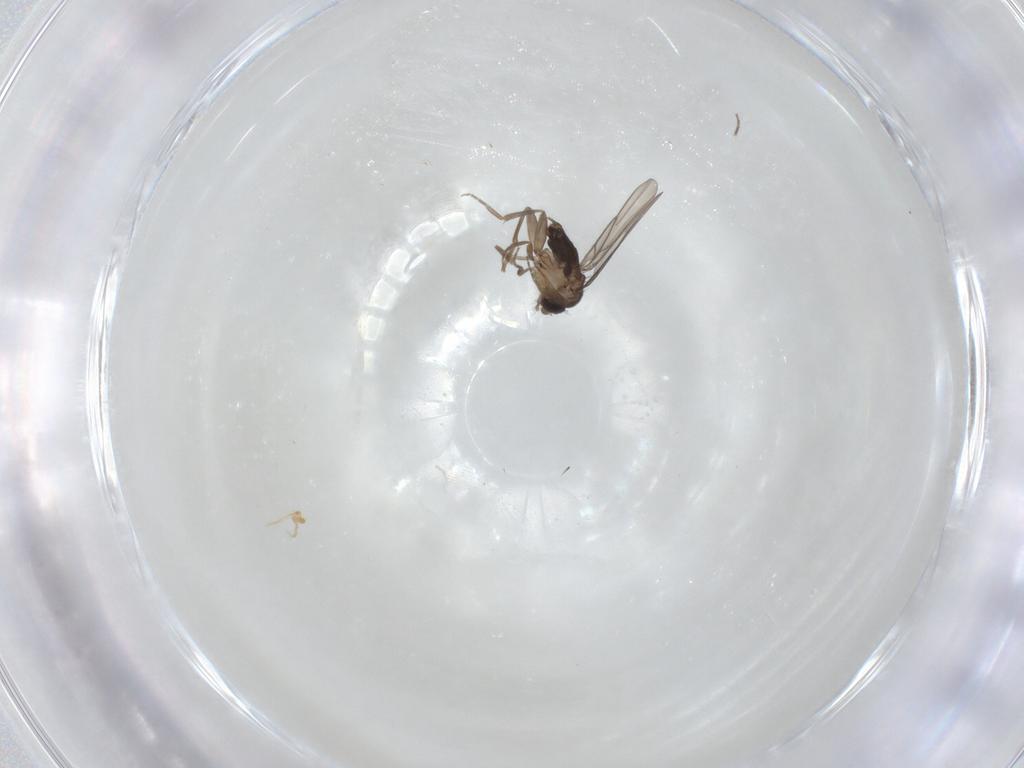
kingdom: Animalia
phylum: Arthropoda
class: Insecta
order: Diptera
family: Phoridae
